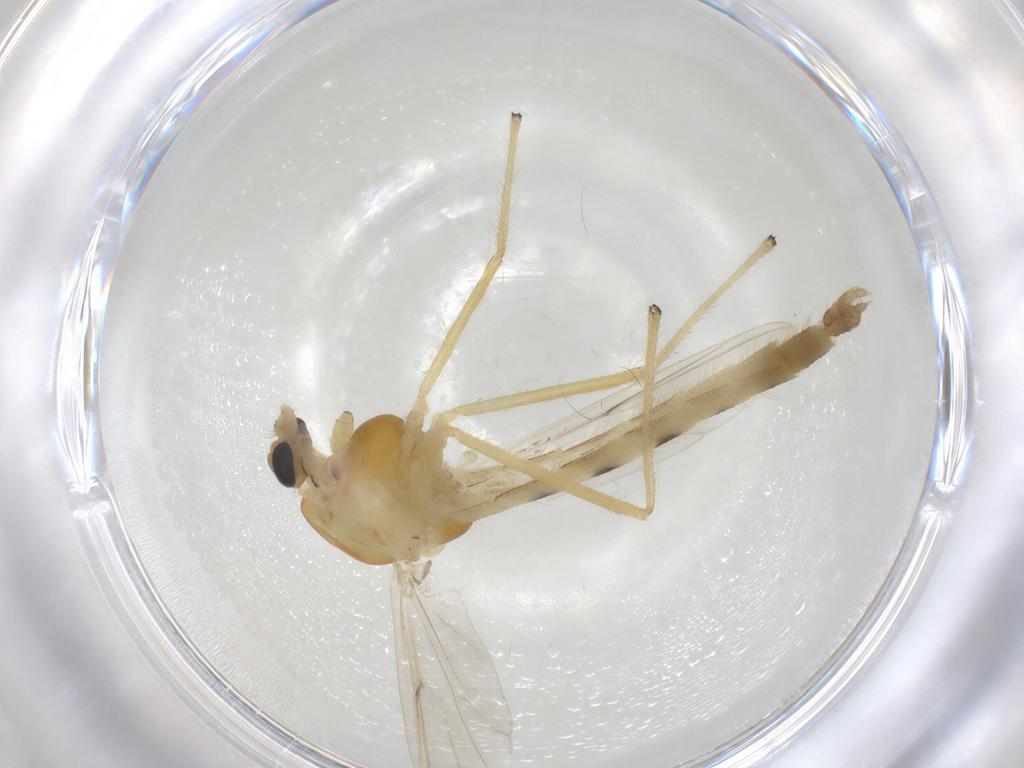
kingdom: Animalia
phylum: Arthropoda
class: Insecta
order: Diptera
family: Chironomidae
